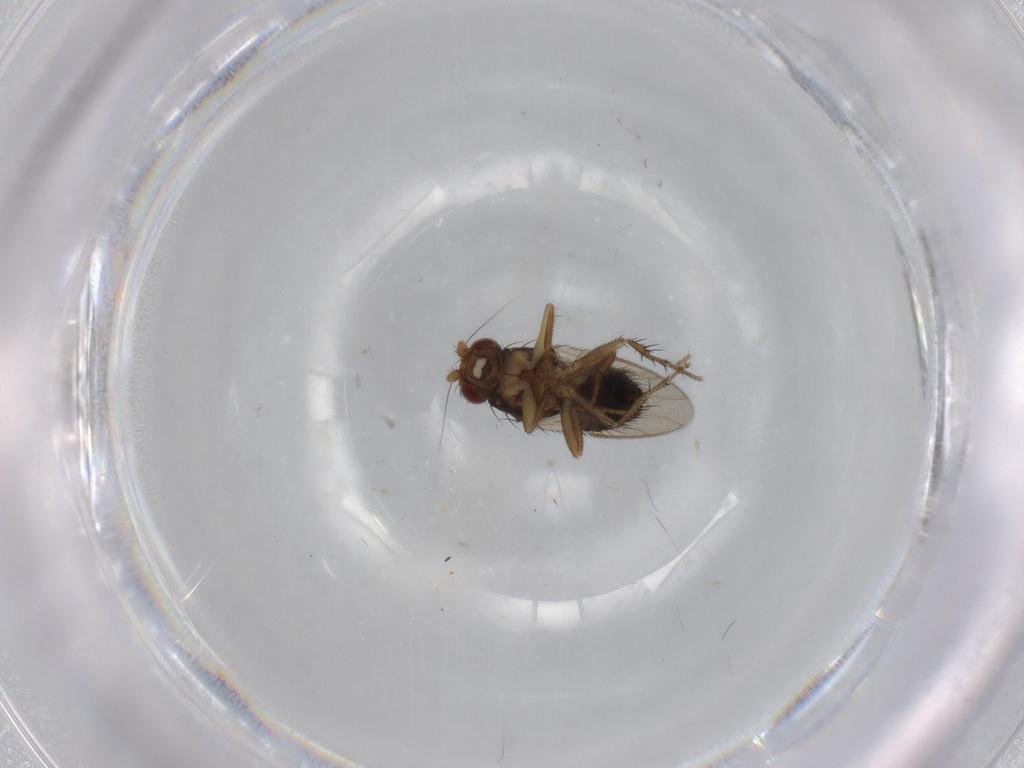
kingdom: Animalia
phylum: Arthropoda
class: Insecta
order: Diptera
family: Sphaeroceridae
